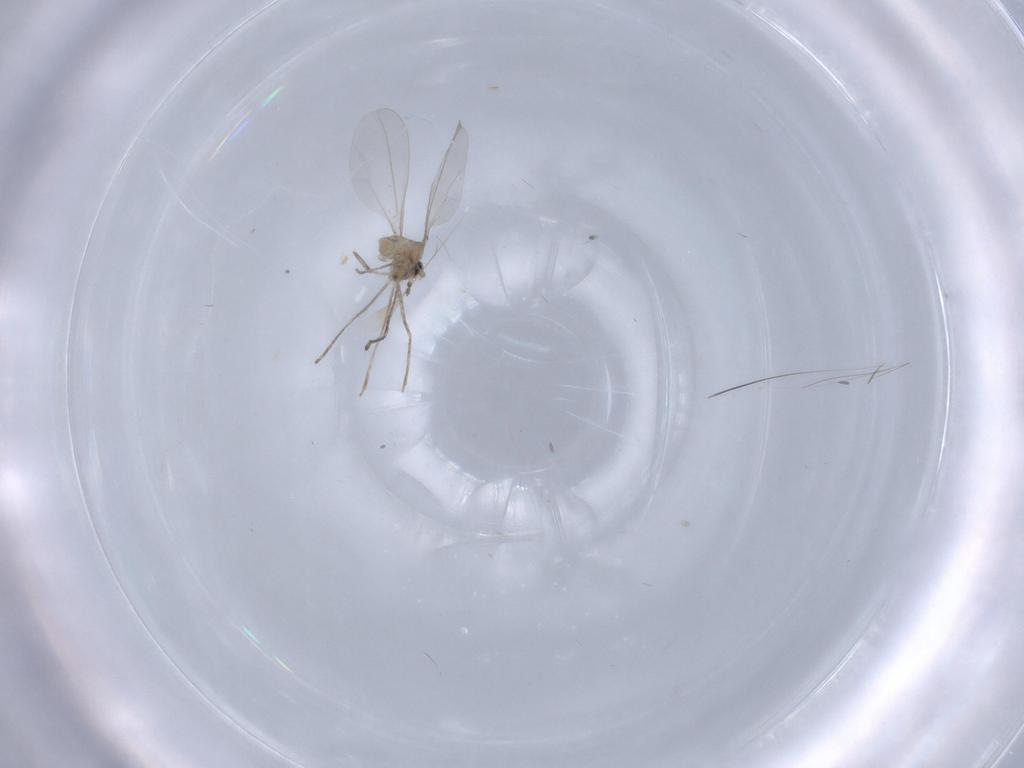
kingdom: Animalia
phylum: Arthropoda
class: Insecta
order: Diptera
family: Cecidomyiidae
